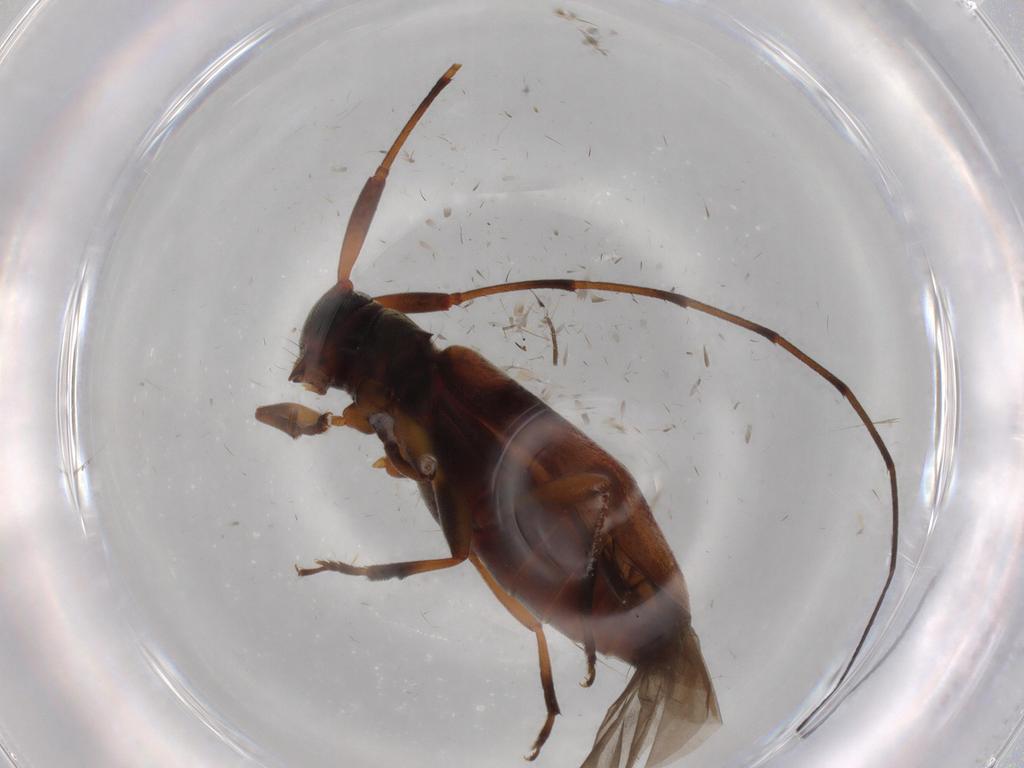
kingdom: Animalia
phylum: Arthropoda
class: Insecta
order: Coleoptera
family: Staphylinidae
